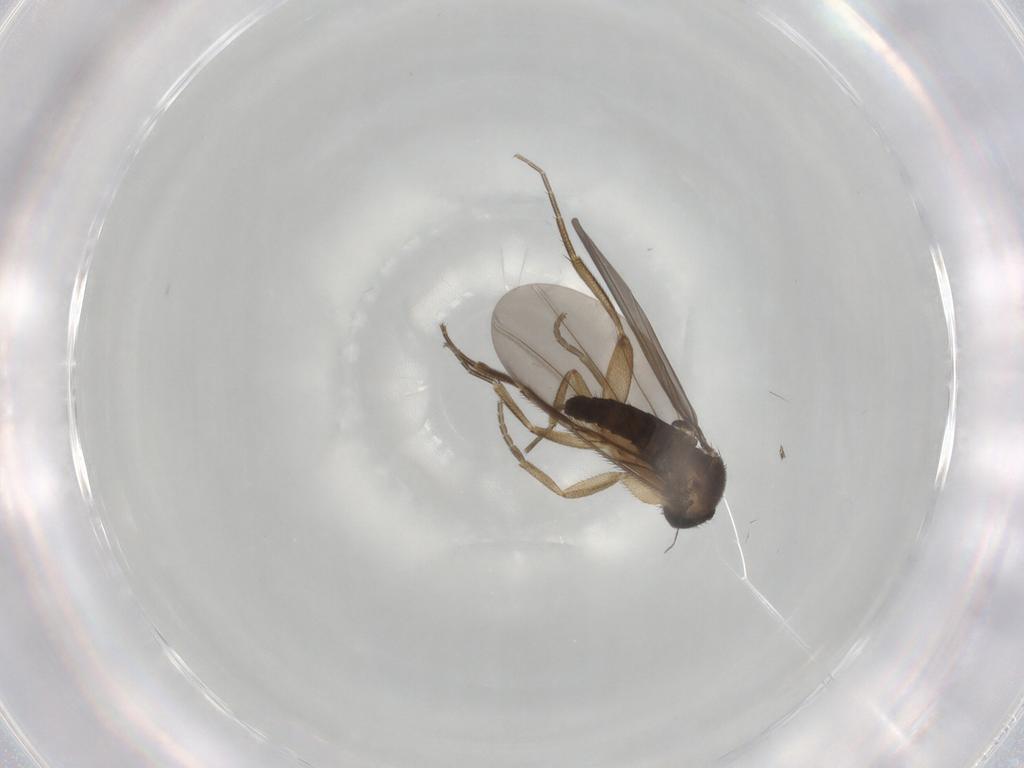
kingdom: Animalia
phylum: Arthropoda
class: Insecta
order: Diptera
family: Phoridae
